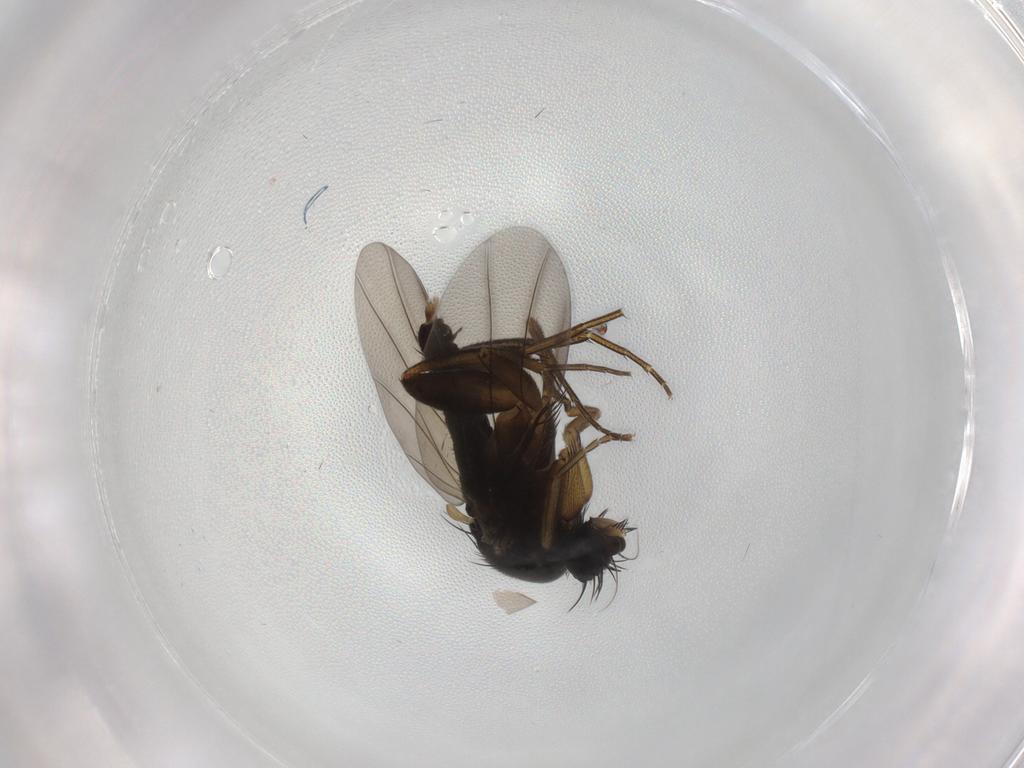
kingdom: Animalia
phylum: Arthropoda
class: Insecta
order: Diptera
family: Phoridae
